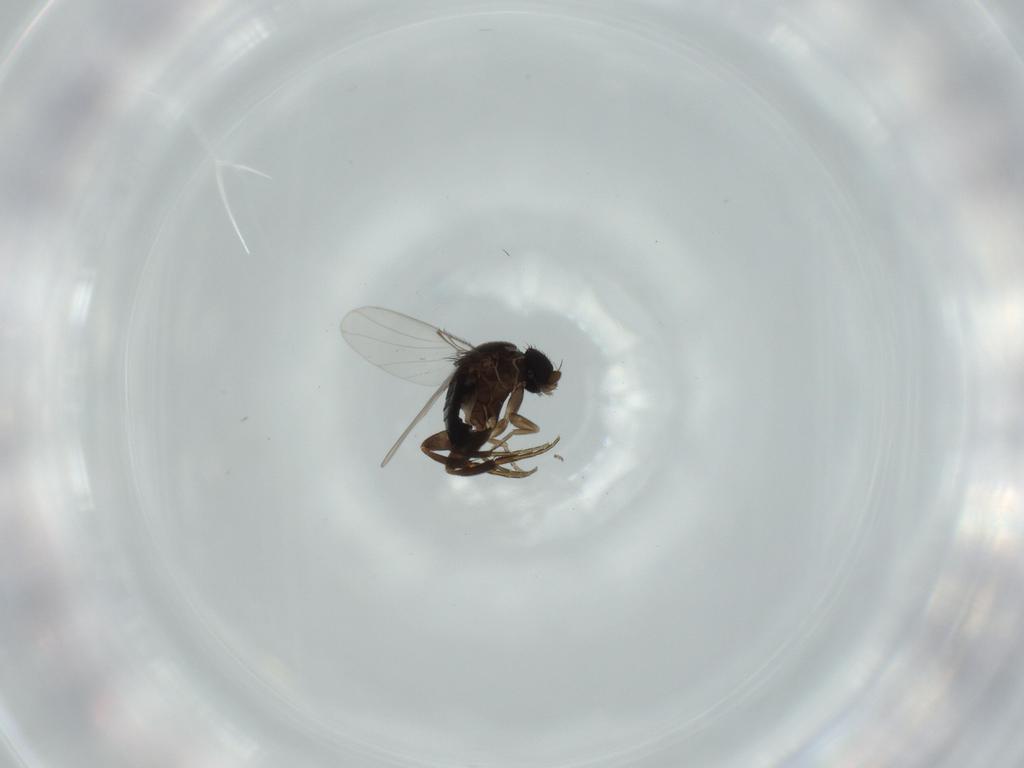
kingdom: Animalia
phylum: Arthropoda
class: Insecta
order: Diptera
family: Phoridae
